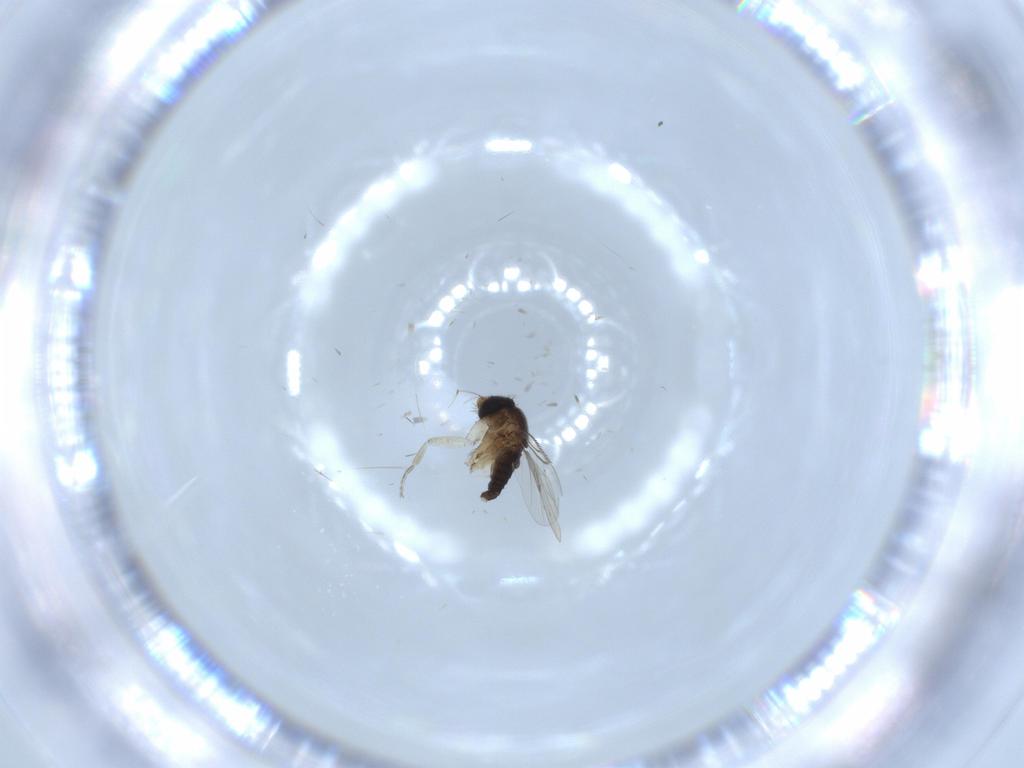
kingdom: Animalia
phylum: Arthropoda
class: Insecta
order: Diptera
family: Phoridae
